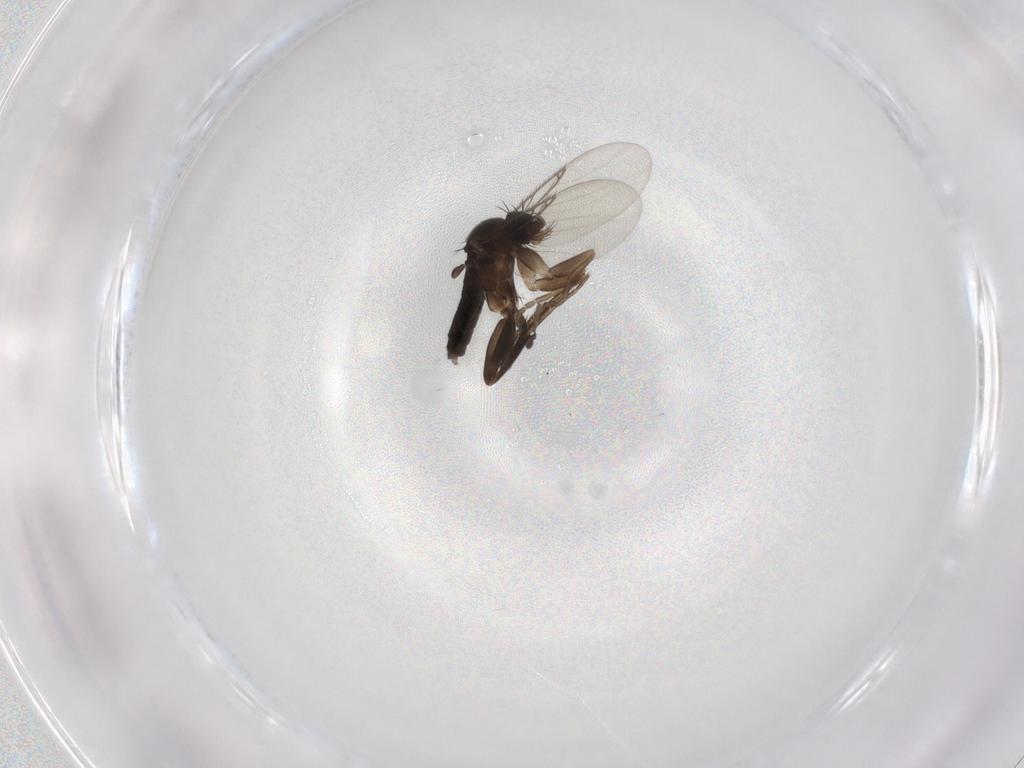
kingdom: Animalia
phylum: Arthropoda
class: Insecta
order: Diptera
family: Phoridae
